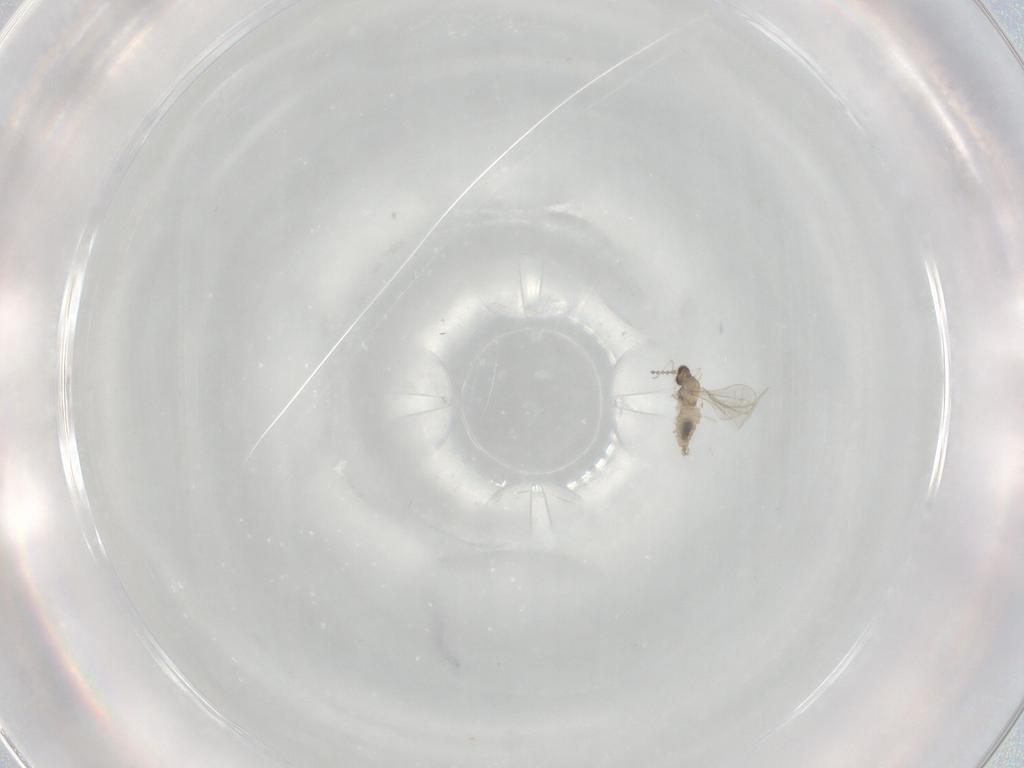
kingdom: Animalia
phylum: Arthropoda
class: Insecta
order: Diptera
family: Cecidomyiidae
